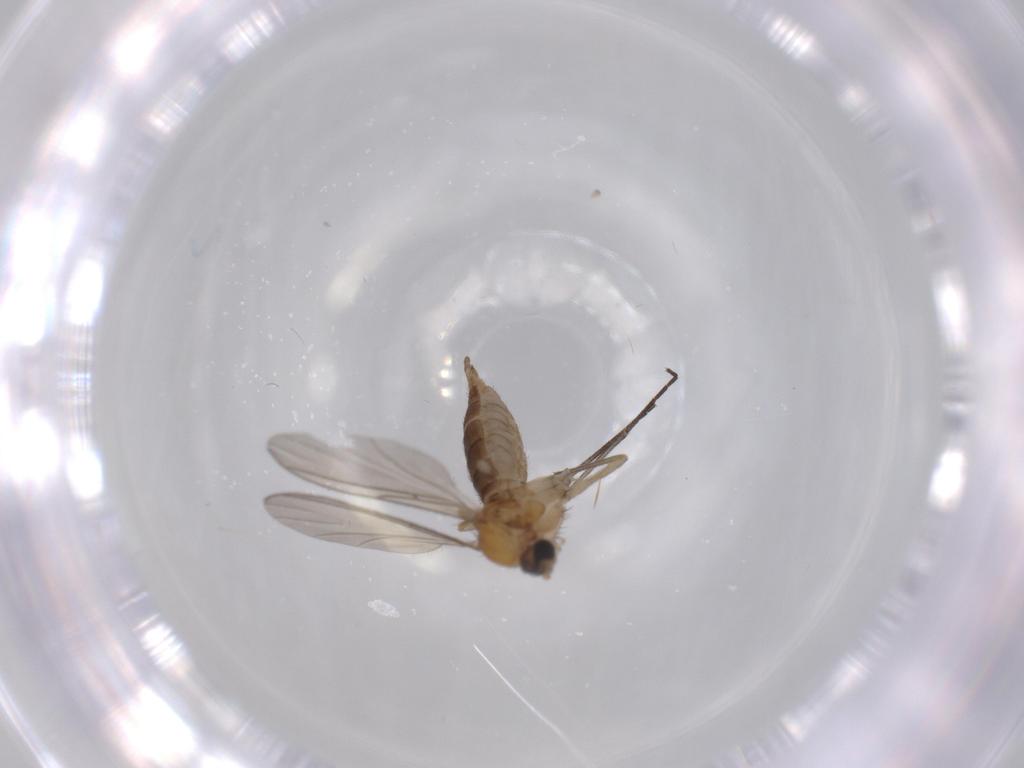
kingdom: Animalia
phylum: Arthropoda
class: Insecta
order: Diptera
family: Sciaridae
